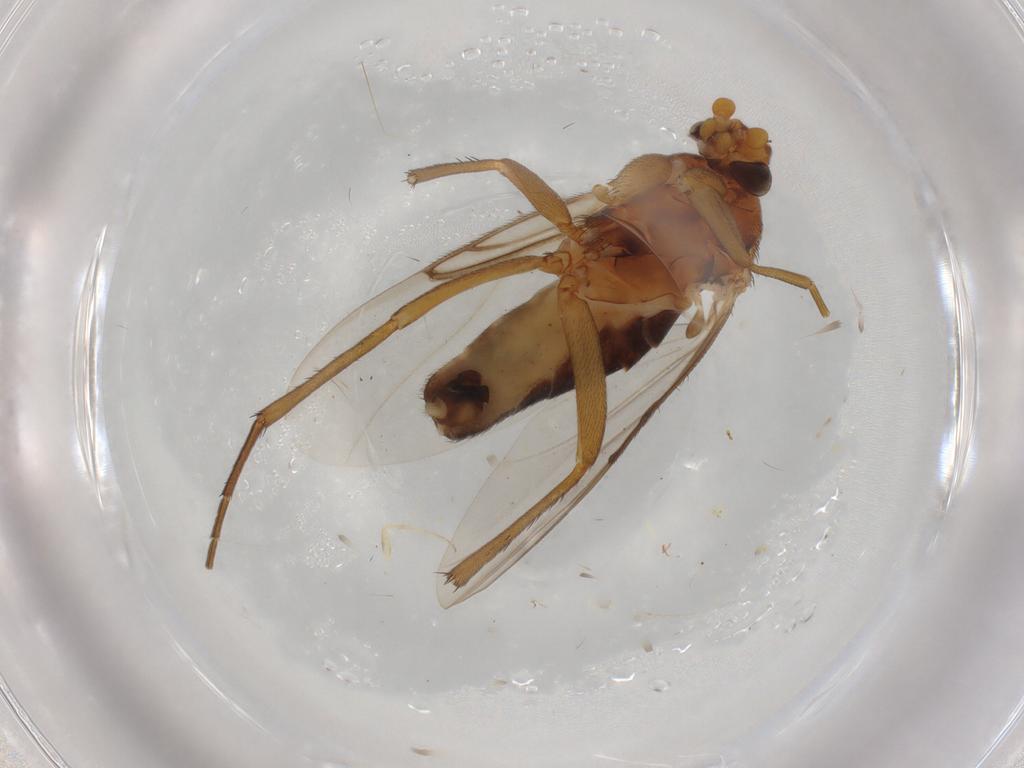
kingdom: Animalia
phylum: Arthropoda
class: Insecta
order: Diptera
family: Phoridae
